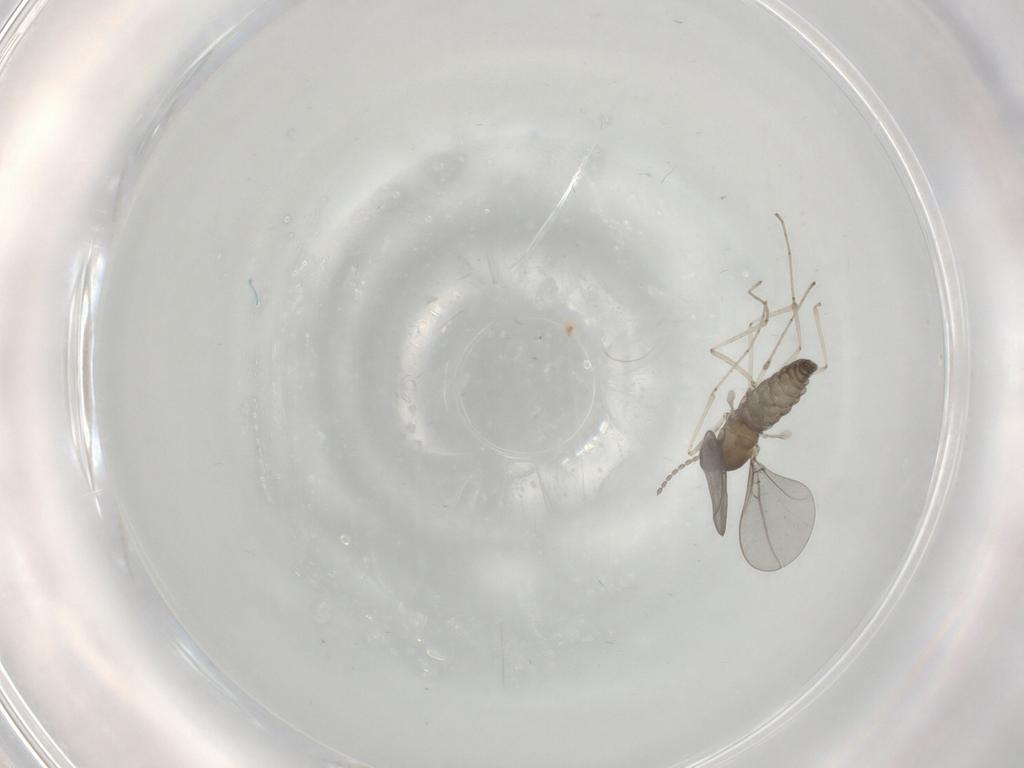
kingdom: Animalia
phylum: Arthropoda
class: Insecta
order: Diptera
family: Cecidomyiidae
